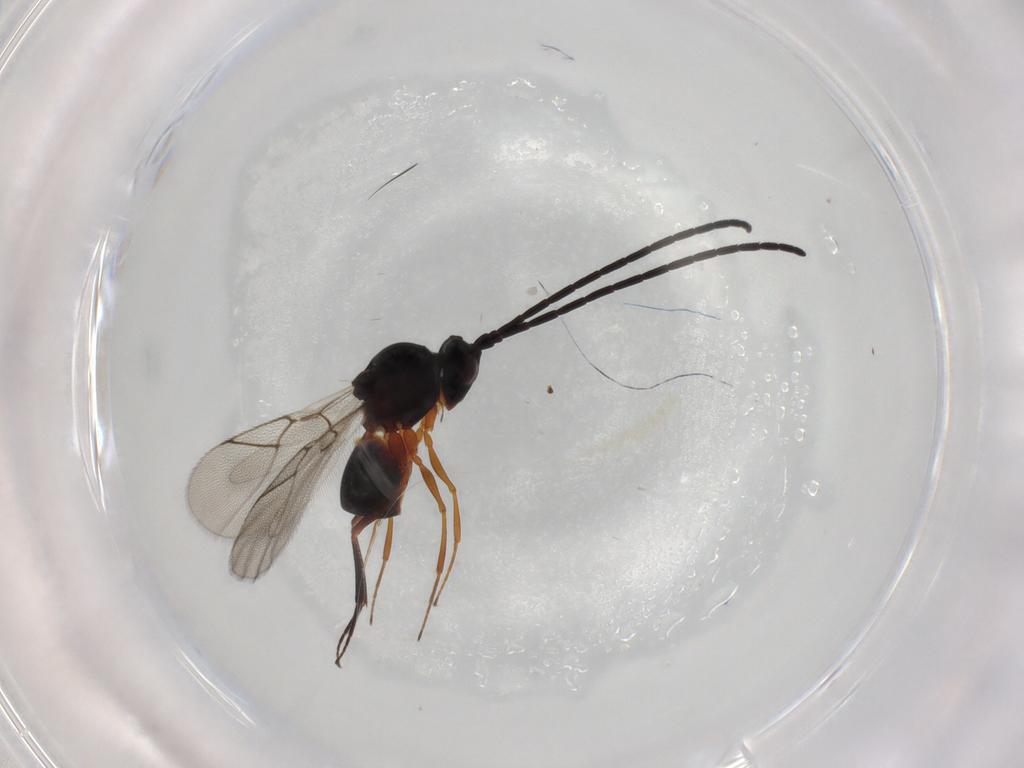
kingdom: Animalia
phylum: Arthropoda
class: Insecta
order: Hymenoptera
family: Figitidae
